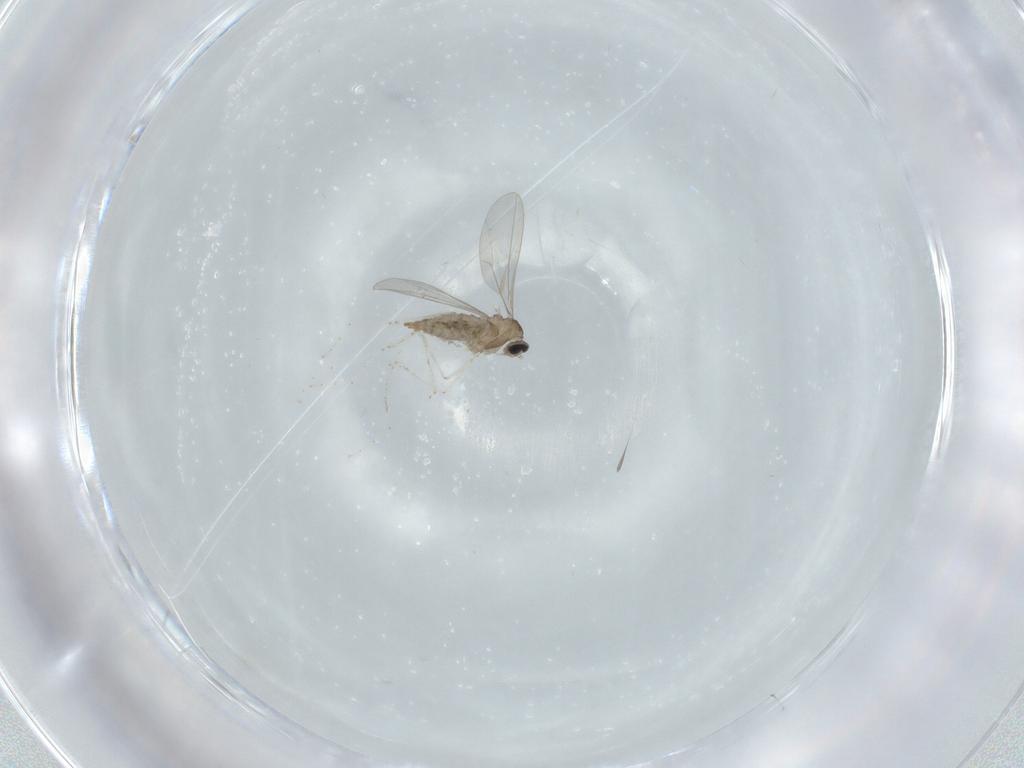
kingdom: Animalia
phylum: Arthropoda
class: Insecta
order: Diptera
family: Cecidomyiidae
